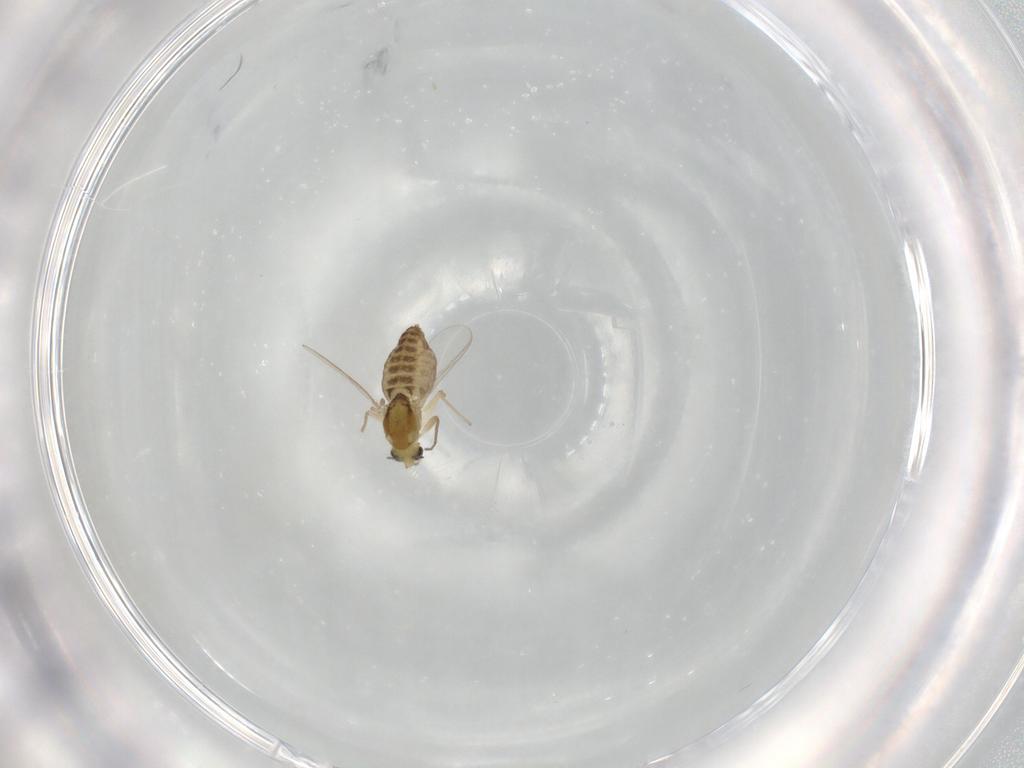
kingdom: Animalia
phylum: Arthropoda
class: Insecta
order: Diptera
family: Chironomidae
